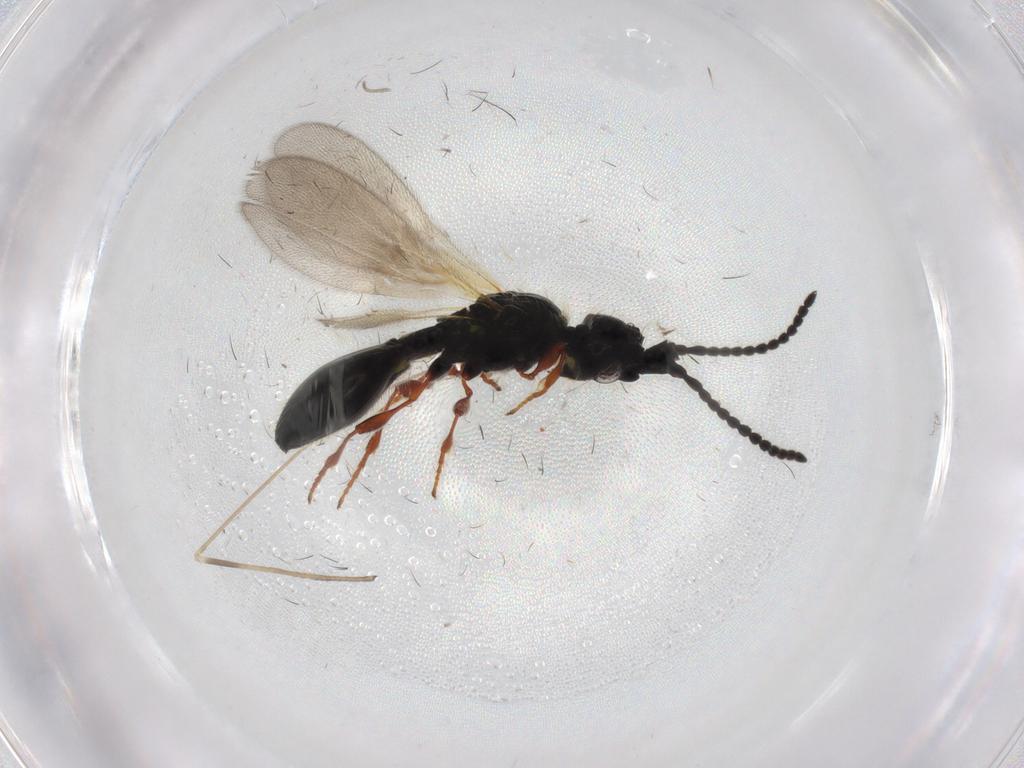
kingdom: Animalia
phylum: Arthropoda
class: Insecta
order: Hymenoptera
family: Diapriidae
